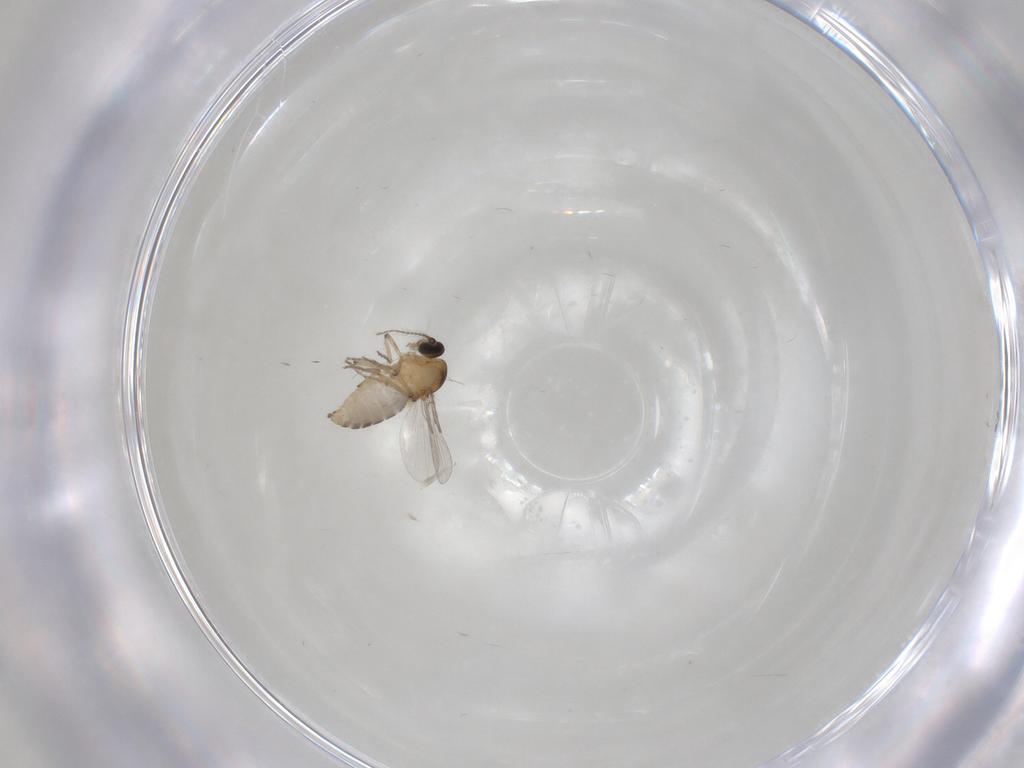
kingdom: Animalia
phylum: Arthropoda
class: Insecta
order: Diptera
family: Ceratopogonidae
